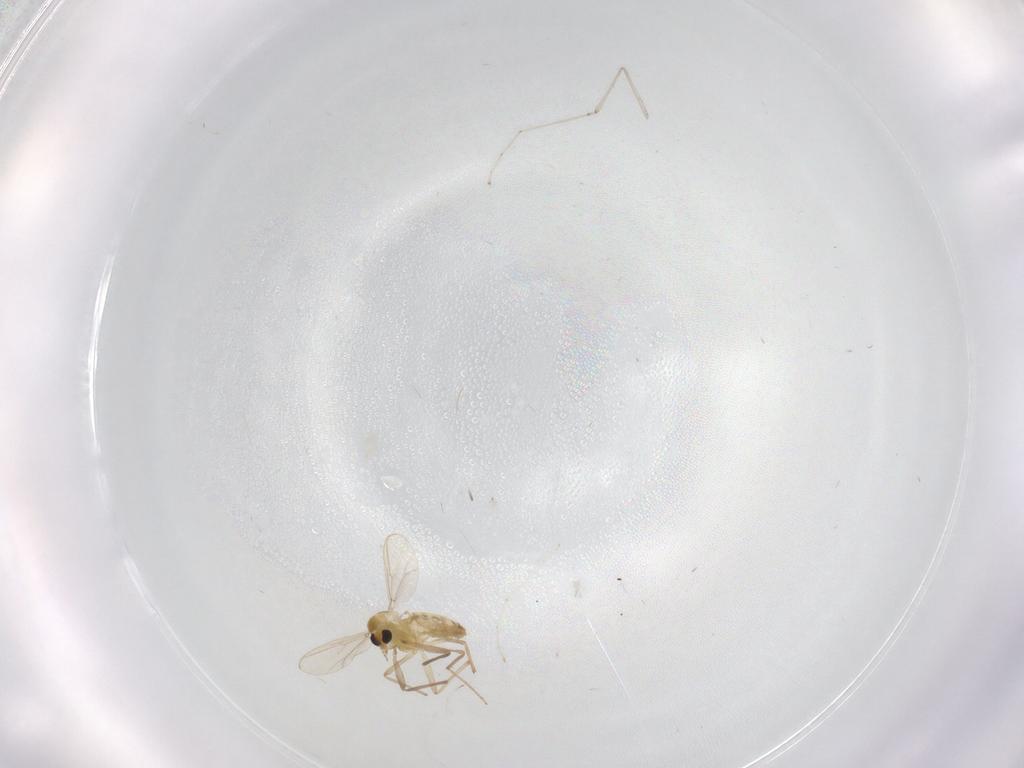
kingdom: Animalia
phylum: Arthropoda
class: Insecta
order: Diptera
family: Chironomidae
